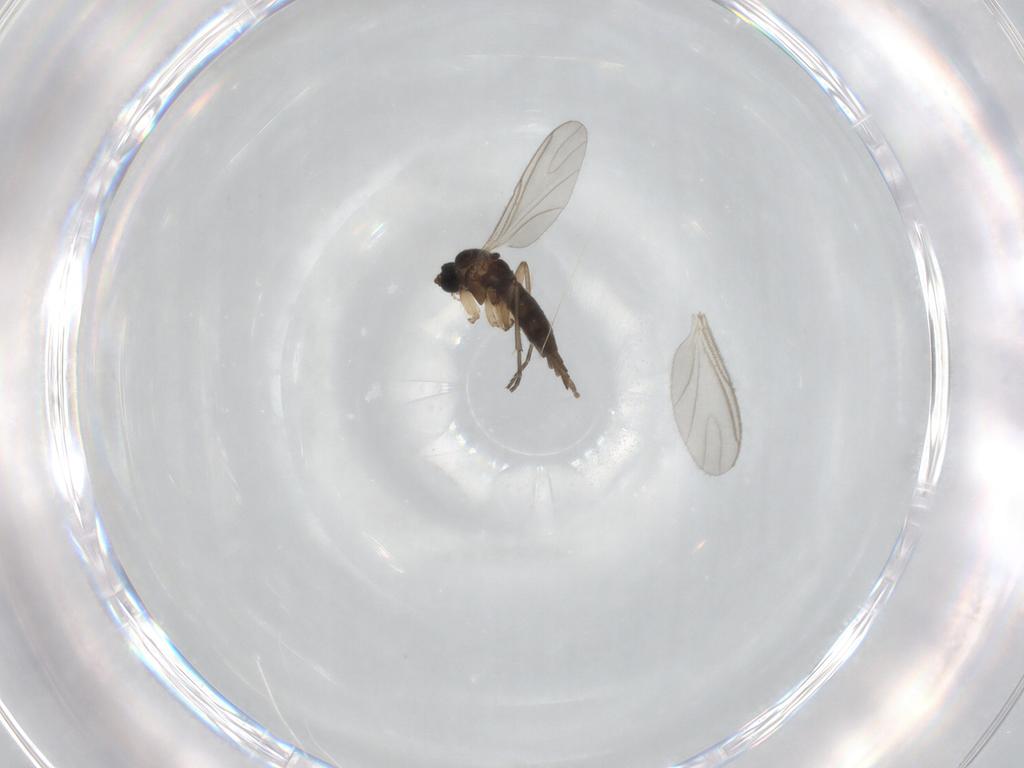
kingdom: Animalia
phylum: Arthropoda
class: Insecta
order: Diptera
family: Sciaridae
